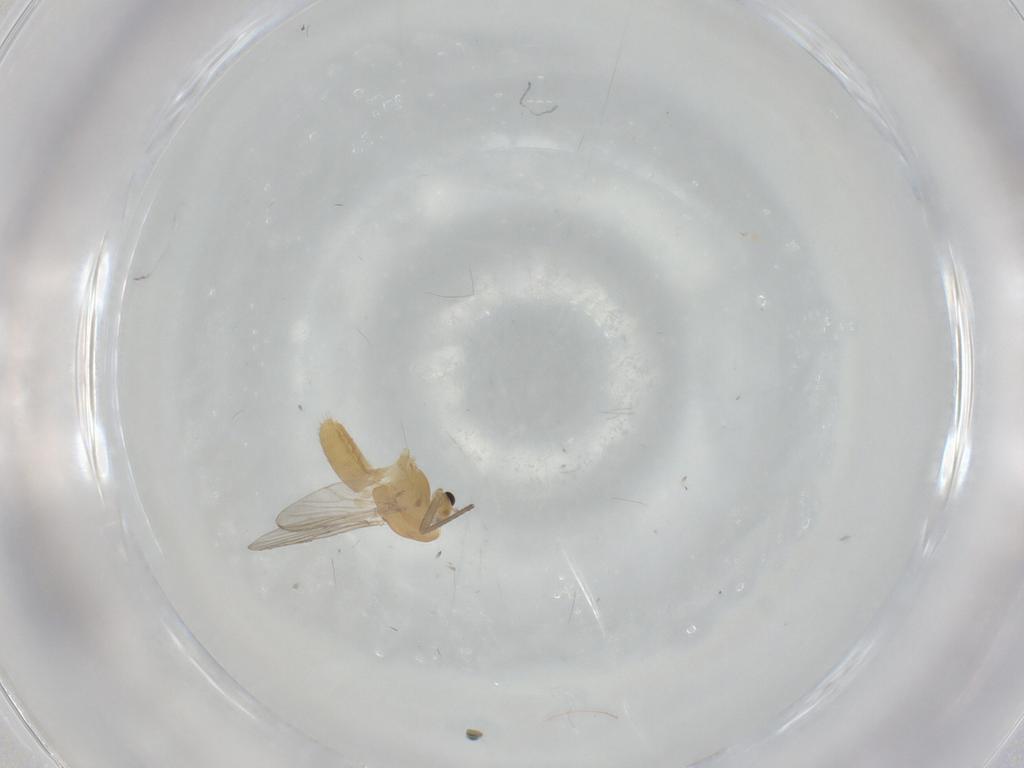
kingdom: Animalia
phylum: Arthropoda
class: Insecta
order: Diptera
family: Chironomidae
